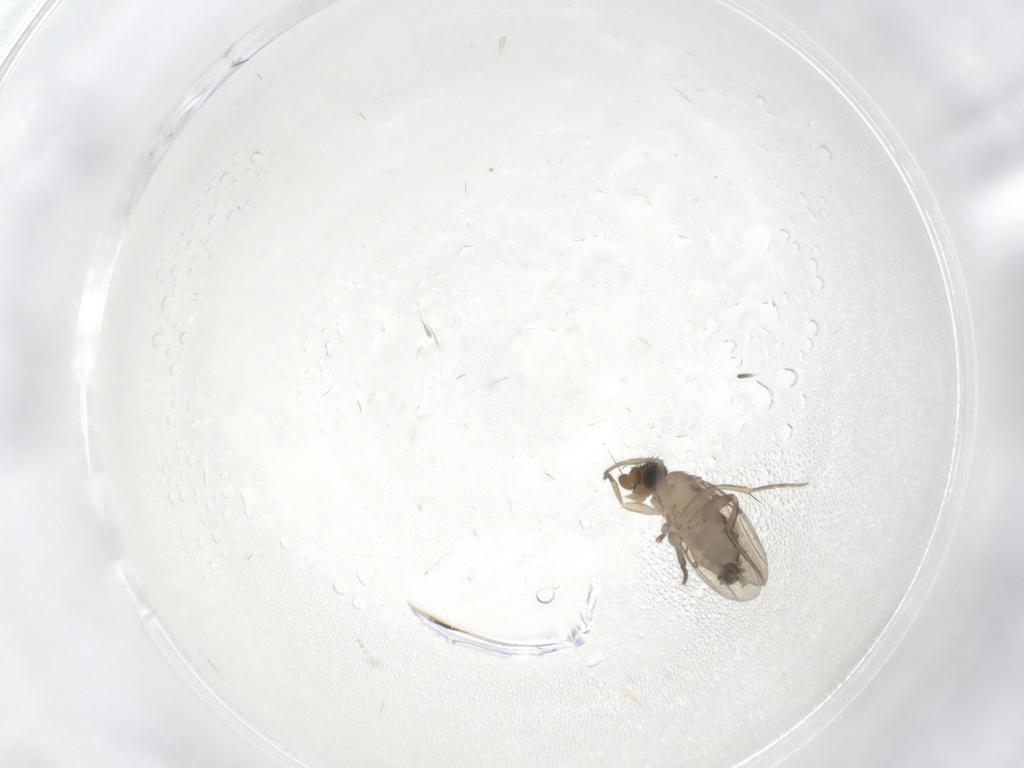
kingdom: Animalia
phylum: Arthropoda
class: Insecta
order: Diptera
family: Phoridae
